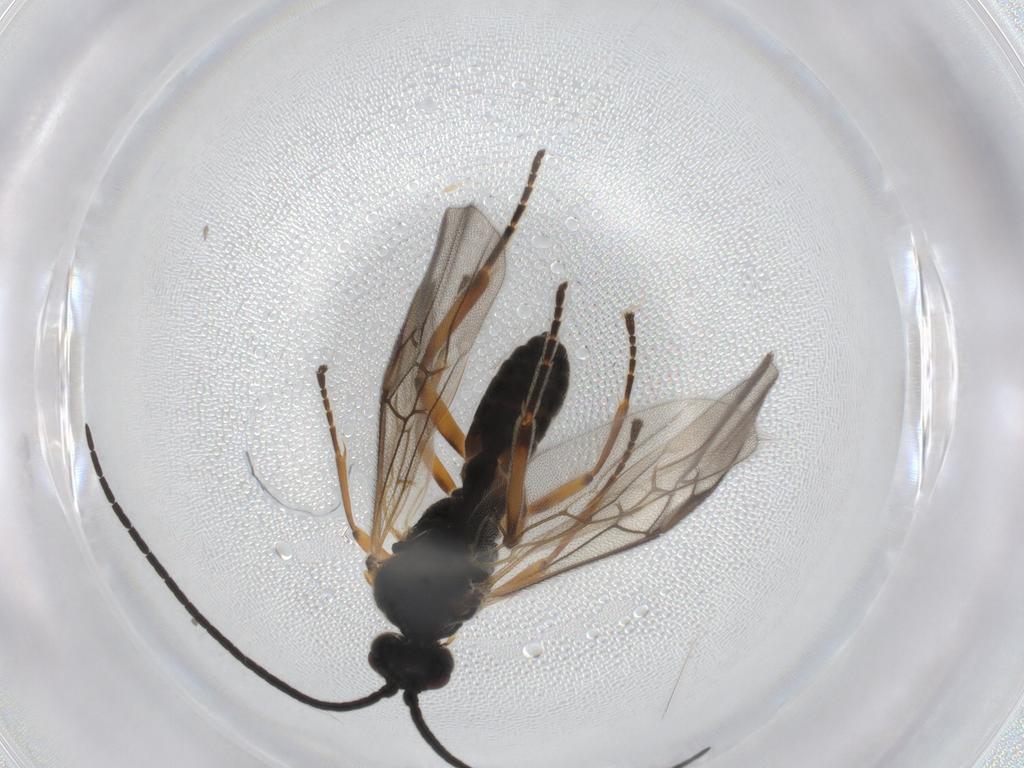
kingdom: Animalia
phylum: Arthropoda
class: Insecta
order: Hymenoptera
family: Braconidae
